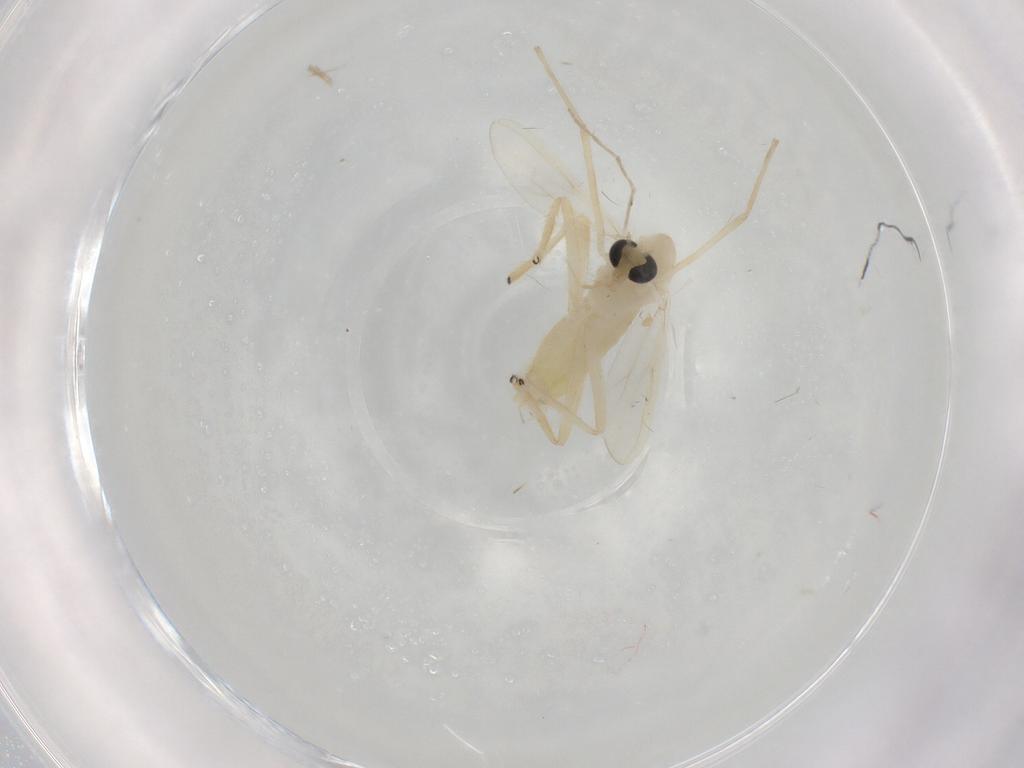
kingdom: Animalia
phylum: Arthropoda
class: Insecta
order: Diptera
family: Chironomidae
